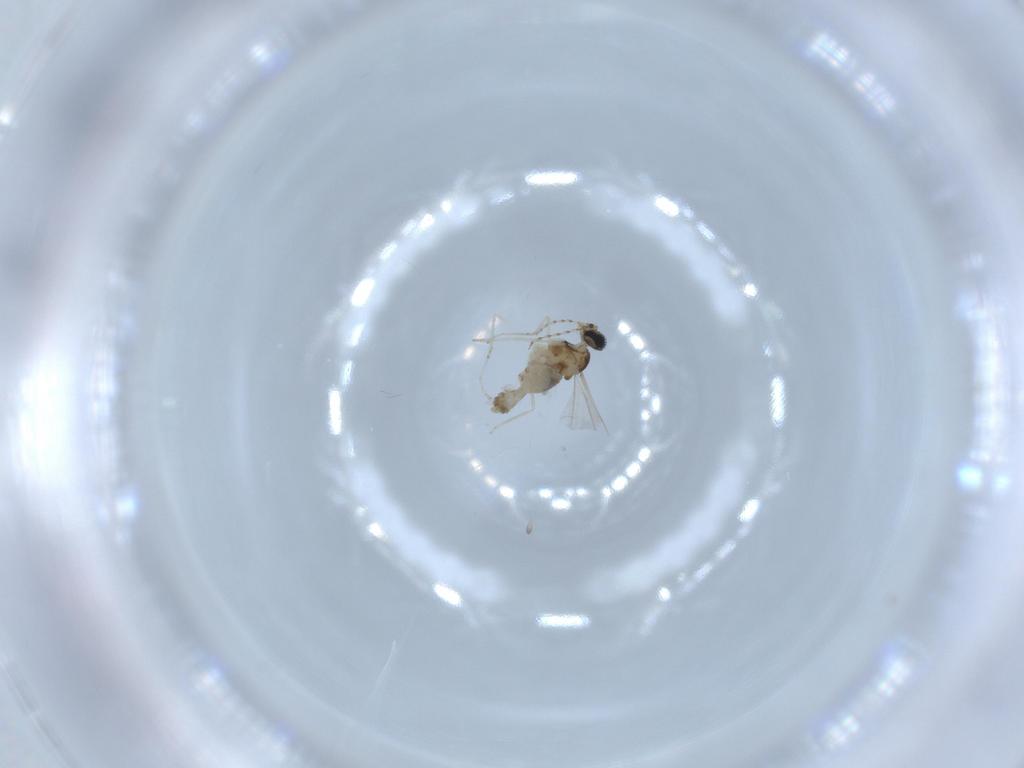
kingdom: Animalia
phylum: Arthropoda
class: Insecta
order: Diptera
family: Cecidomyiidae
